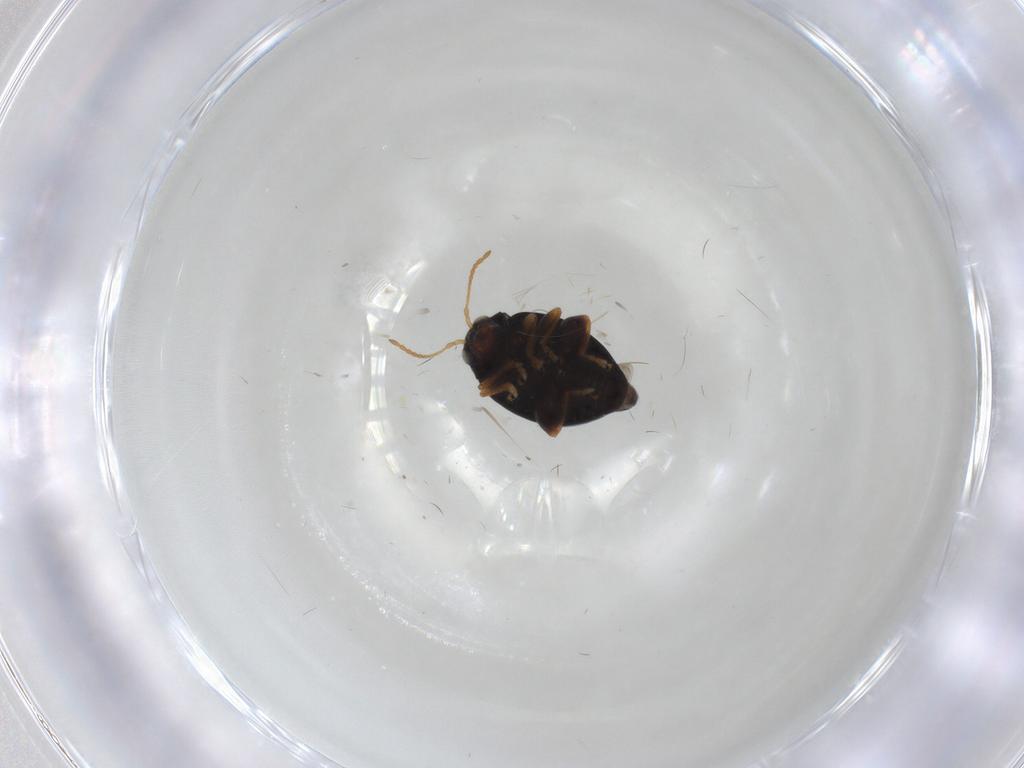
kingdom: Animalia
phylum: Arthropoda
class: Insecta
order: Coleoptera
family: Chrysomelidae
